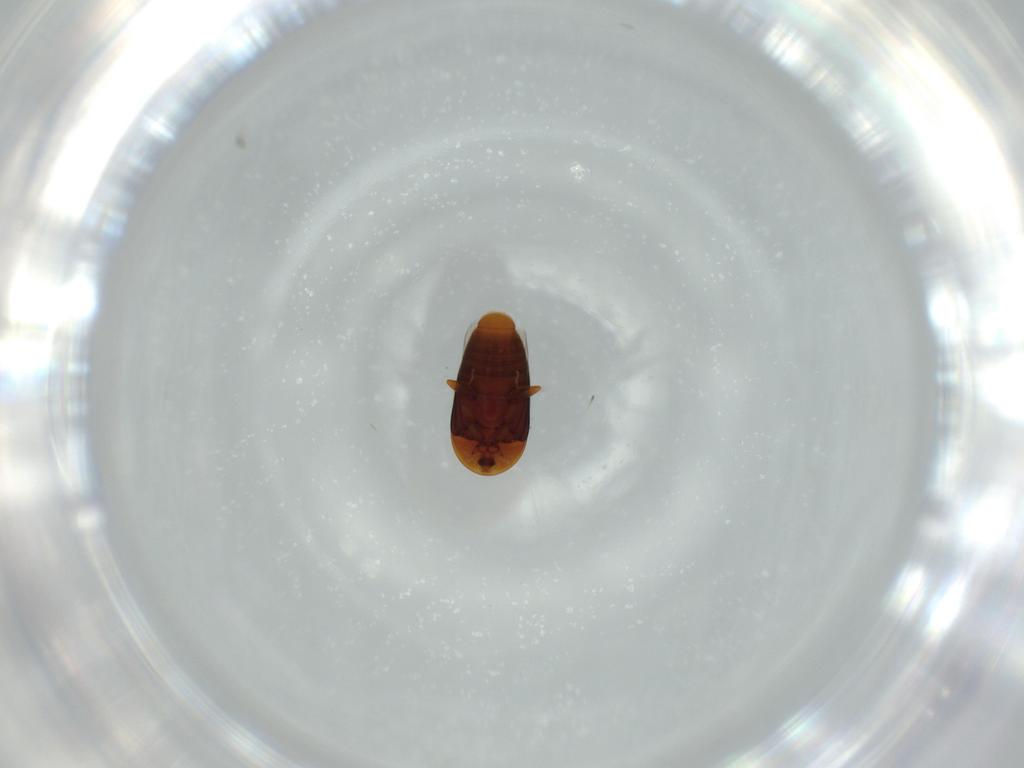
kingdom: Animalia
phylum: Arthropoda
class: Insecta
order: Coleoptera
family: Corylophidae
